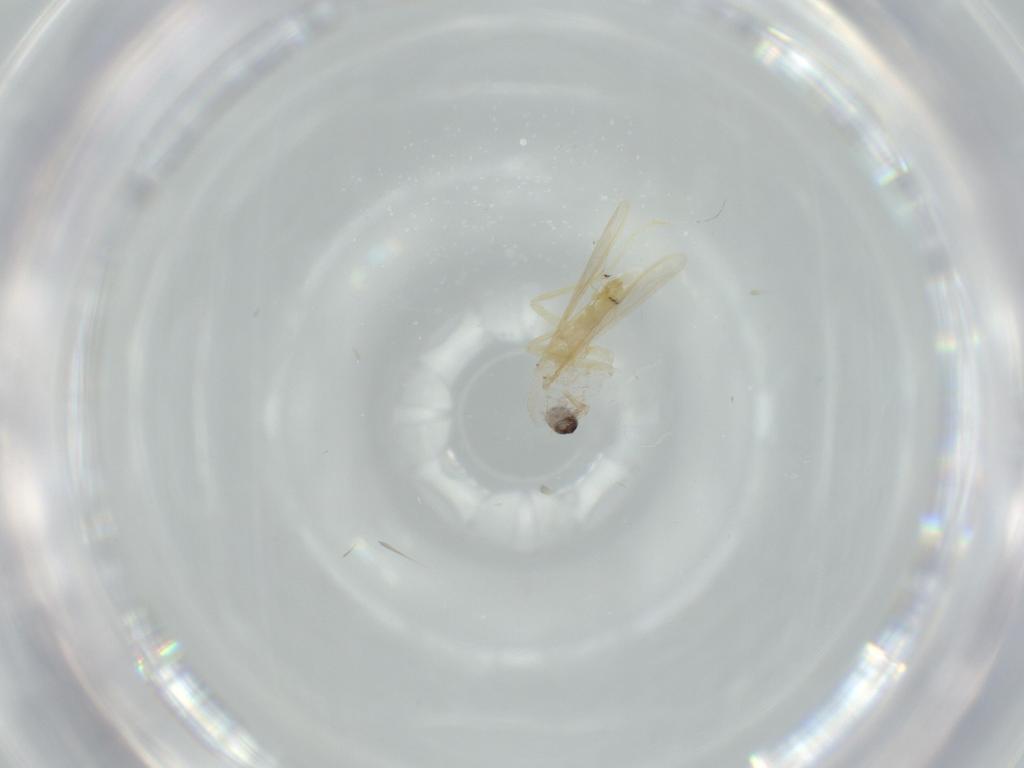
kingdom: Animalia
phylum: Arthropoda
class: Insecta
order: Diptera
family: Chironomidae
